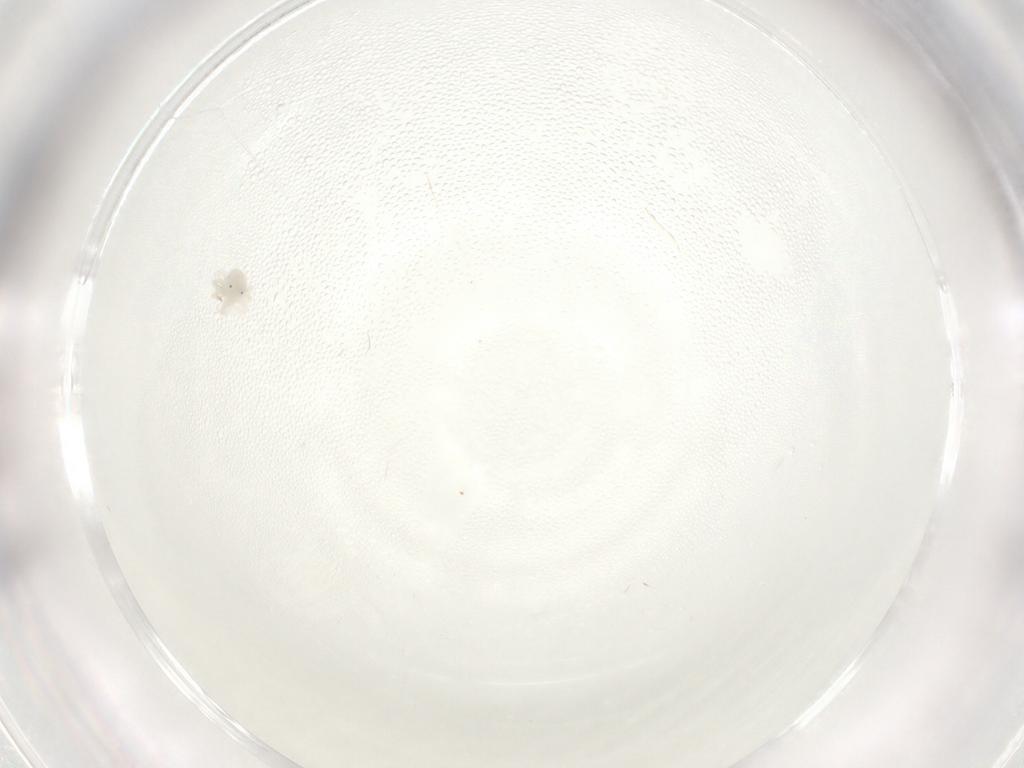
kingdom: Animalia
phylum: Arthropoda
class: Arachnida
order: Trombidiformes
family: Anystidae
